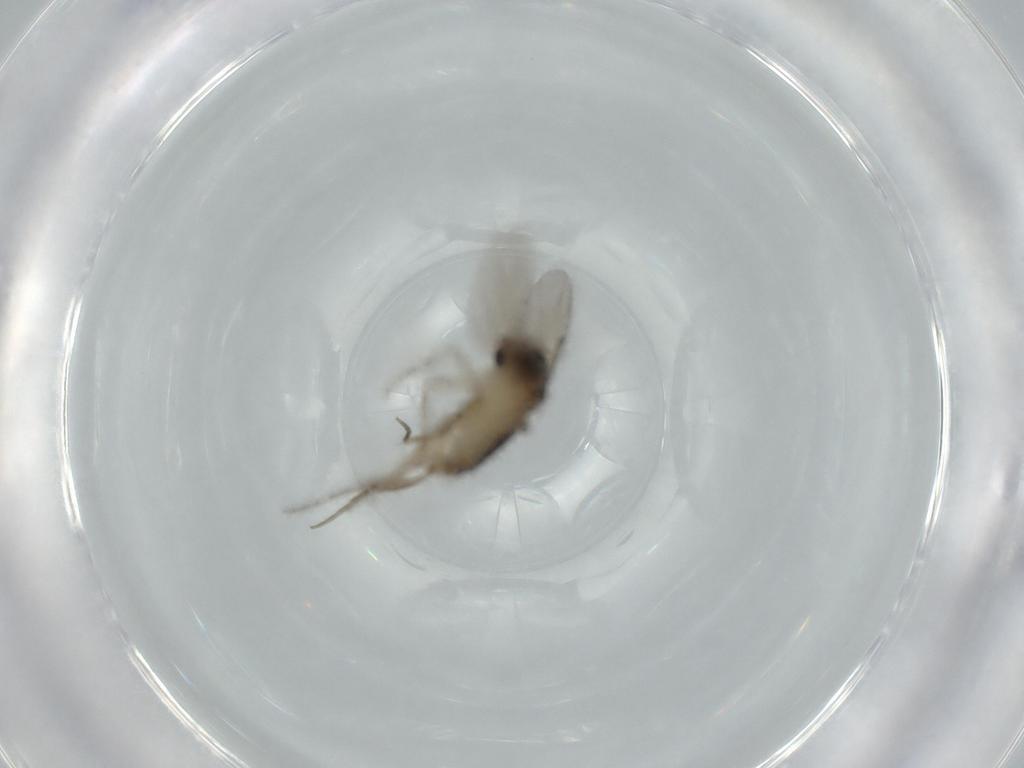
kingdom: Animalia
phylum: Arthropoda
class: Insecta
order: Diptera
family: Phoridae
